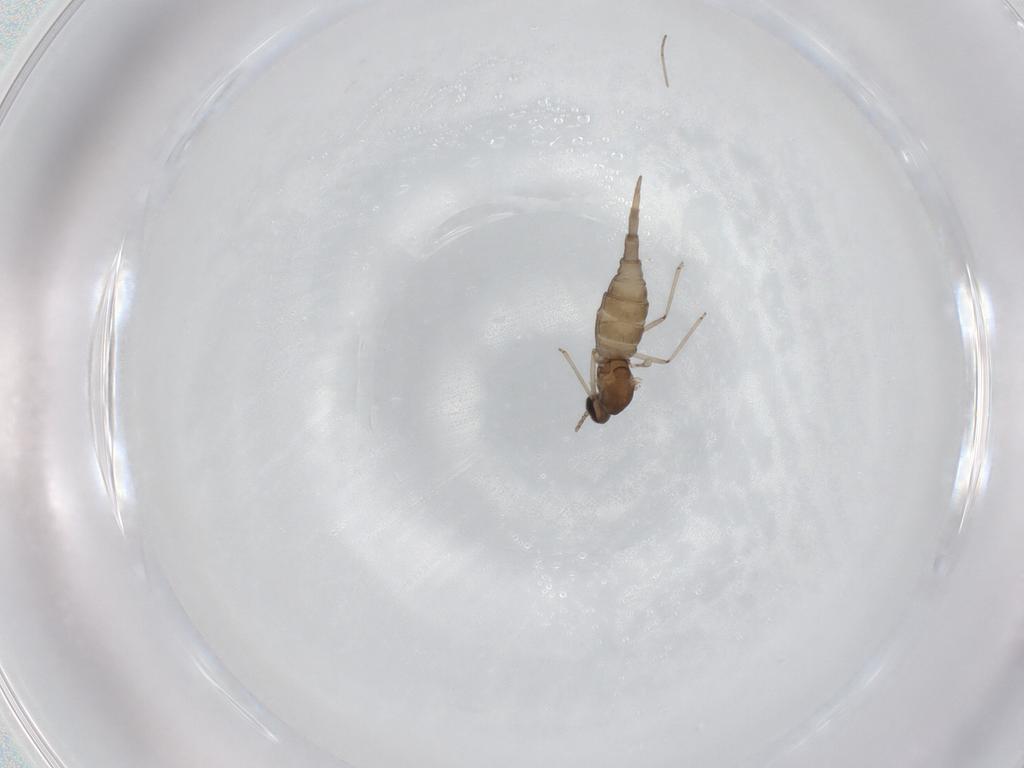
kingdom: Animalia
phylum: Arthropoda
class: Insecta
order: Diptera
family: Cecidomyiidae
